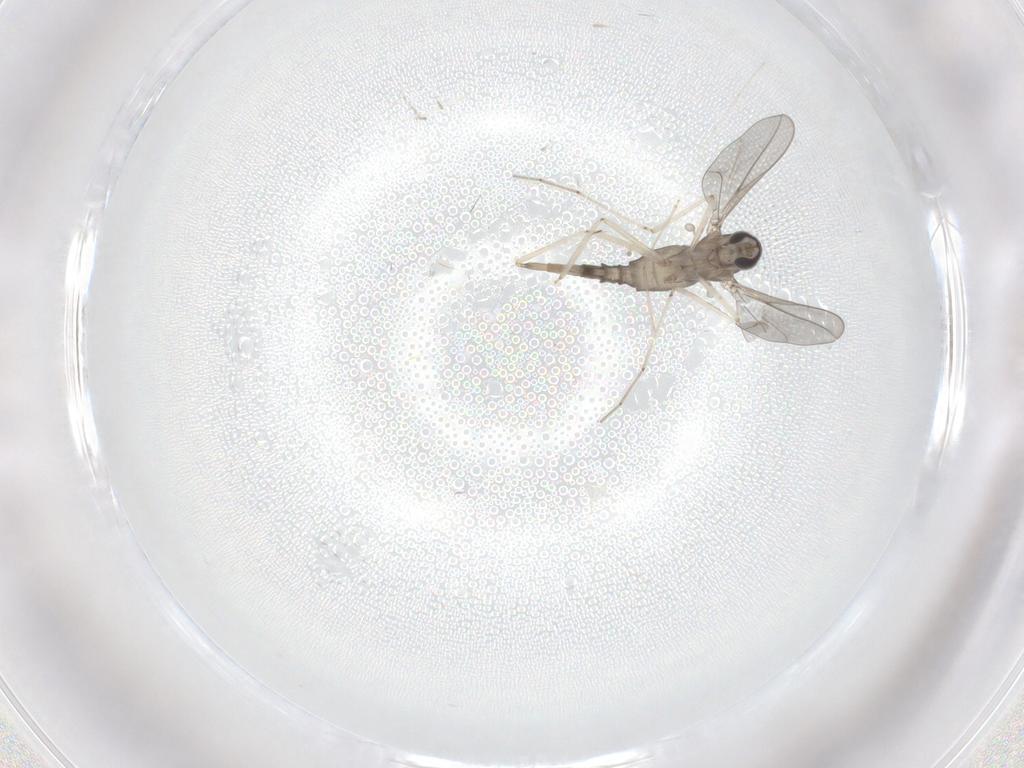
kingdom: Animalia
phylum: Arthropoda
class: Insecta
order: Diptera
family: Cecidomyiidae
